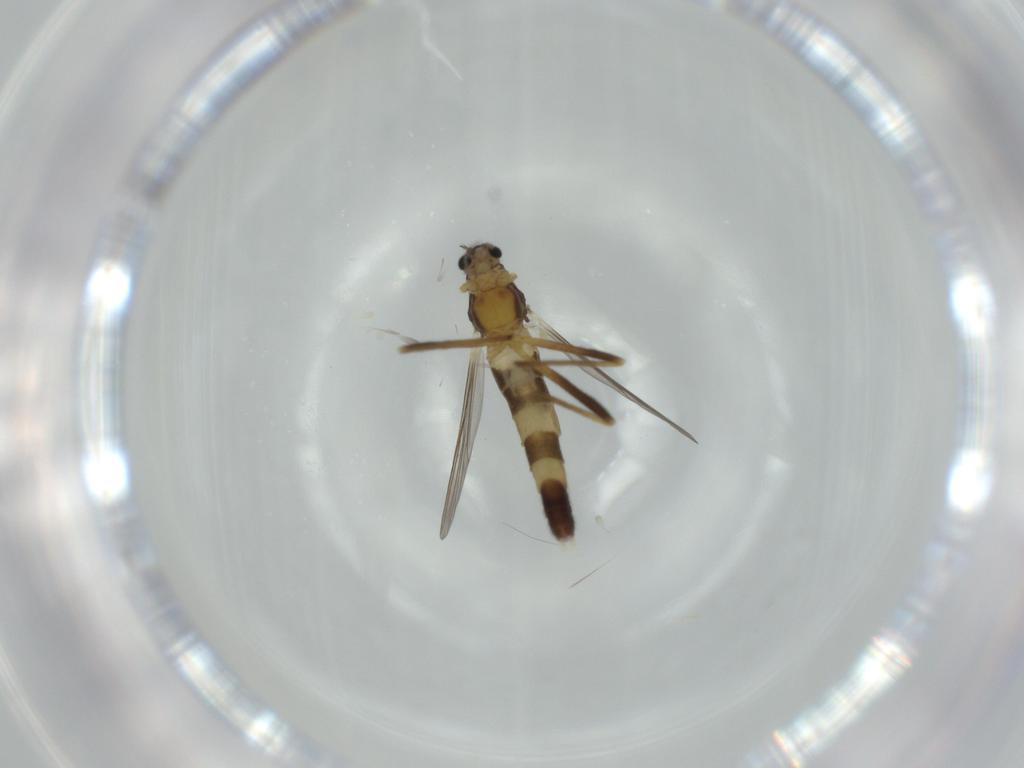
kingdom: Animalia
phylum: Arthropoda
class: Insecta
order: Diptera
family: Chironomidae
